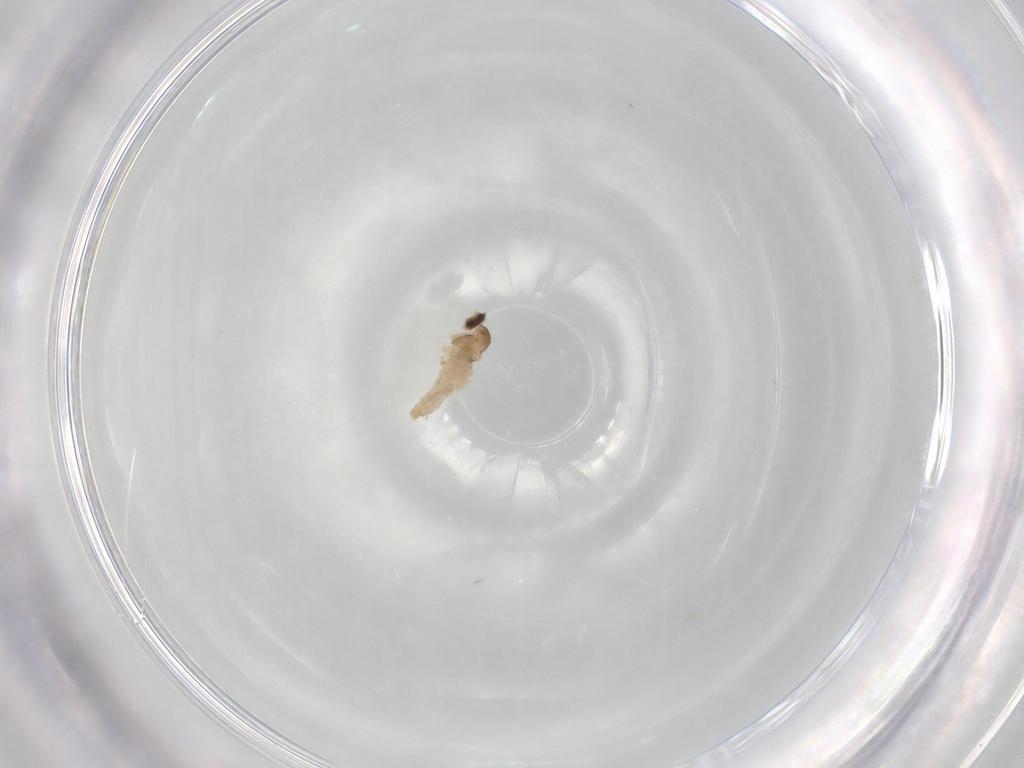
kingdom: Animalia
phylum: Arthropoda
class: Insecta
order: Diptera
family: Cecidomyiidae
